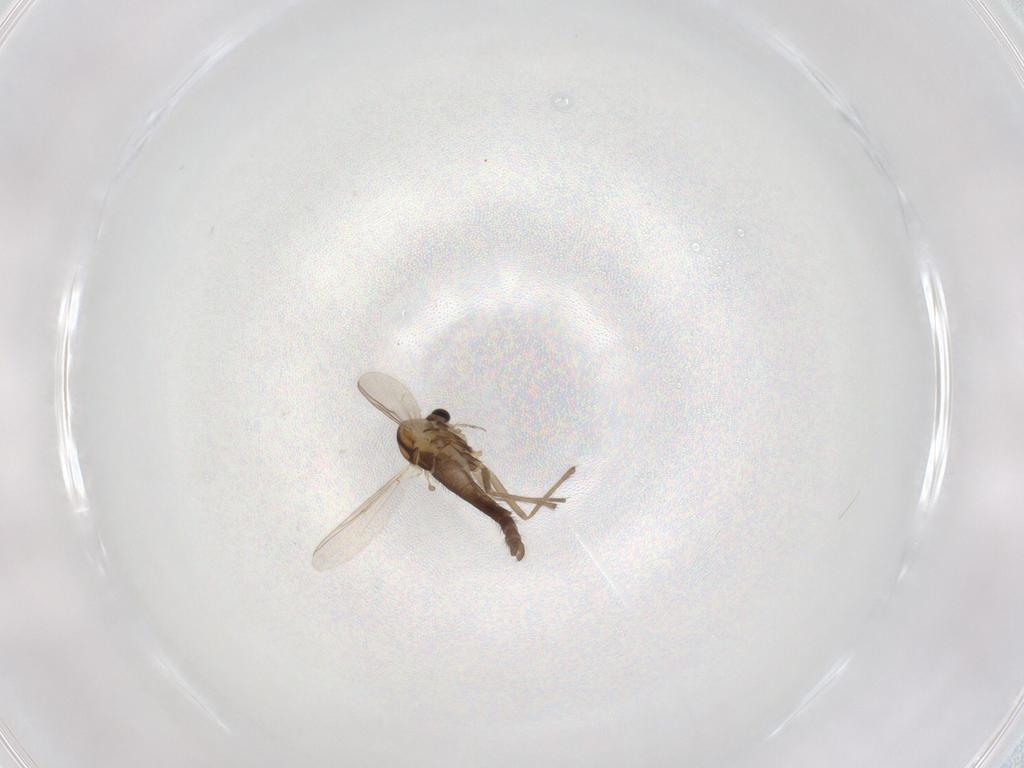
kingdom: Animalia
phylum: Arthropoda
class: Insecta
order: Diptera
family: Chironomidae
